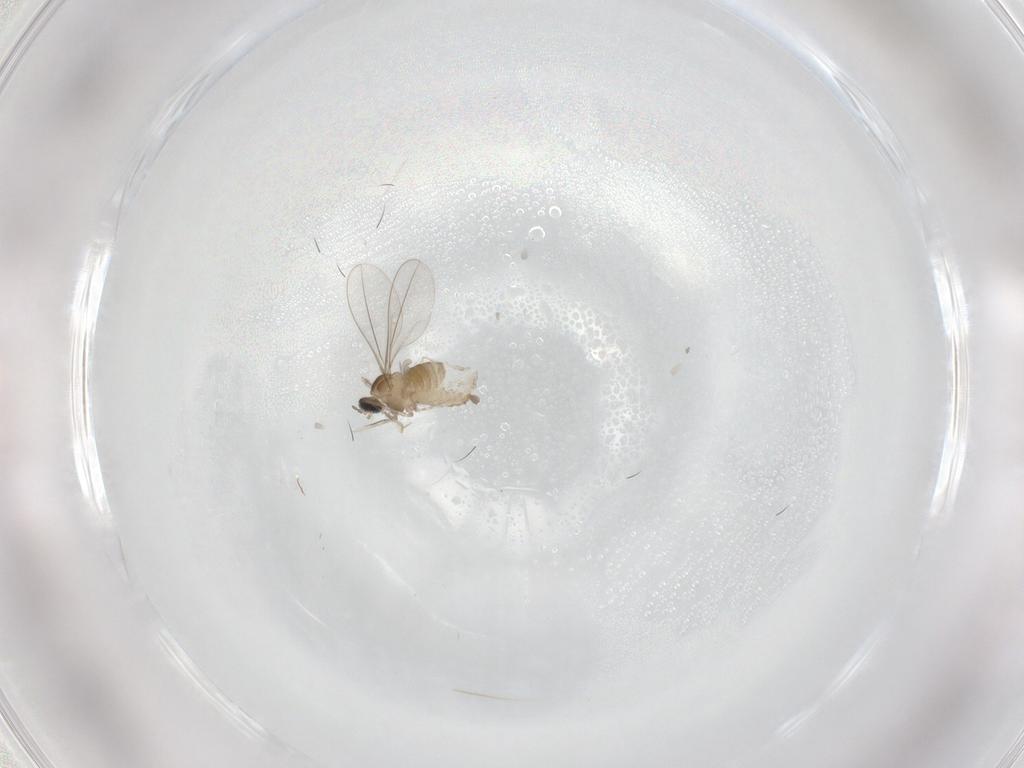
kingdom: Animalia
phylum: Arthropoda
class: Insecta
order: Diptera
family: Cecidomyiidae
